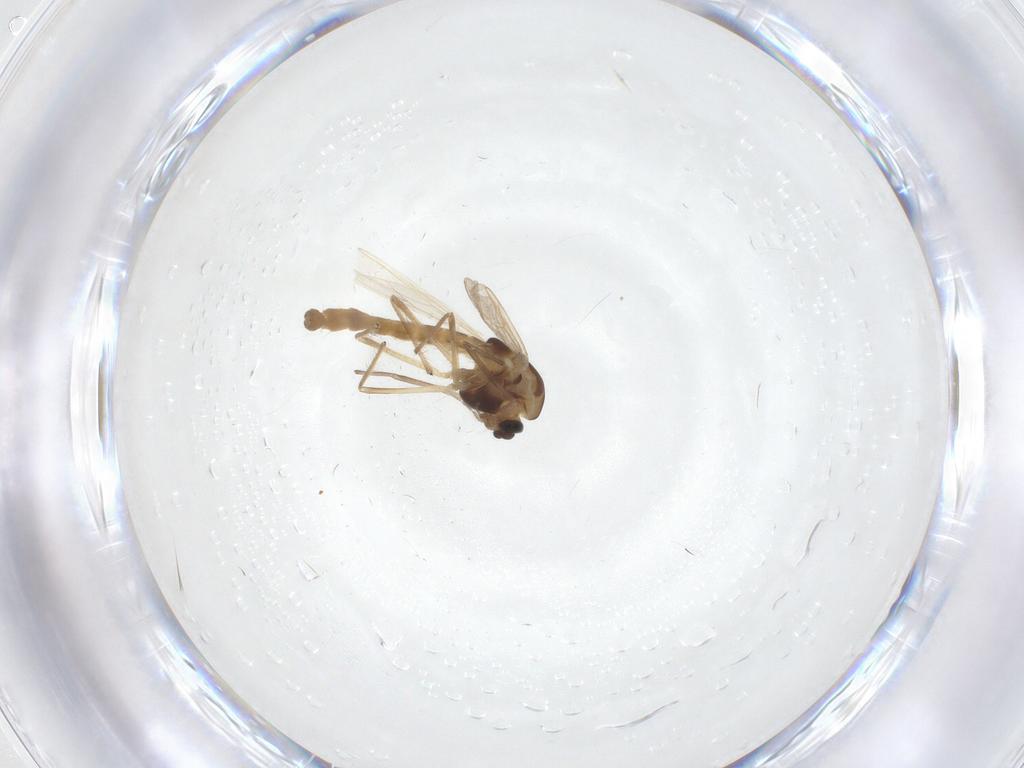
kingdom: Animalia
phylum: Arthropoda
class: Insecta
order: Diptera
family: Chironomidae
